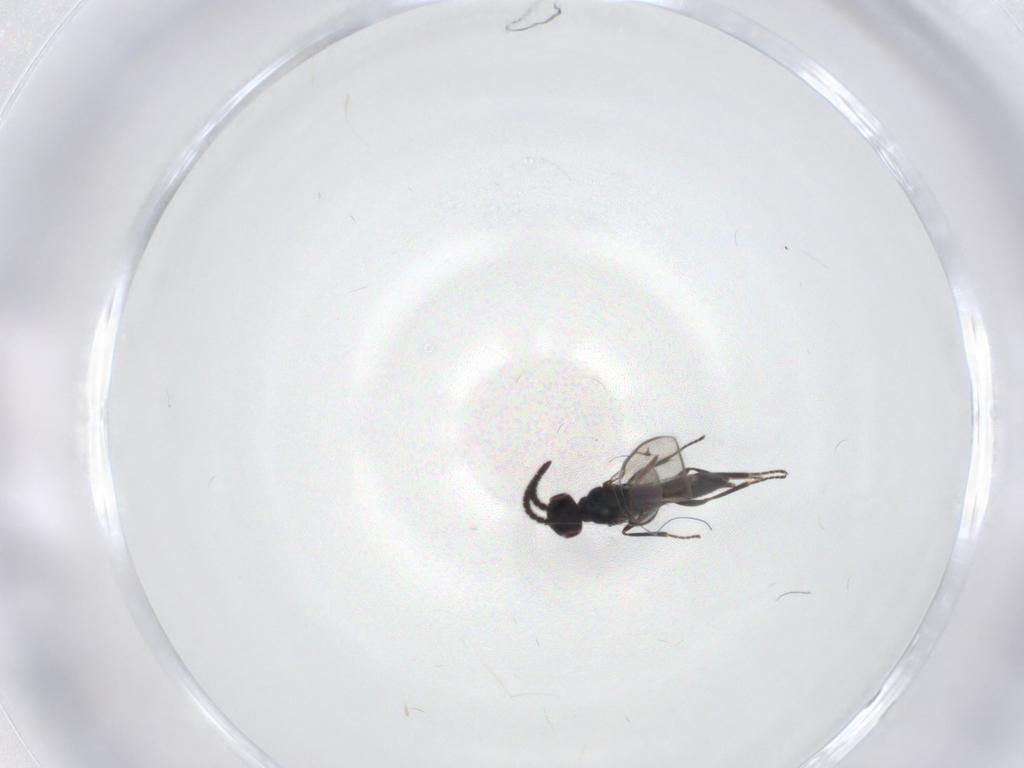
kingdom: Animalia
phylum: Arthropoda
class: Insecta
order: Hymenoptera
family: Eupelmidae
